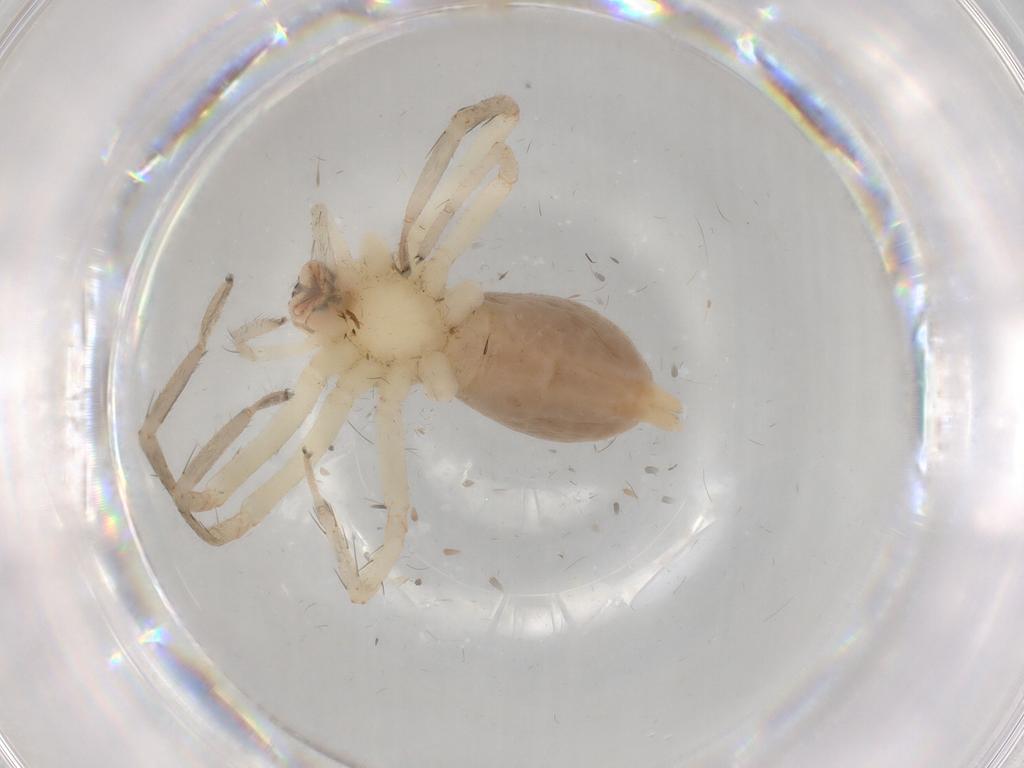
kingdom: Animalia
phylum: Arthropoda
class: Arachnida
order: Araneae
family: Anyphaenidae
